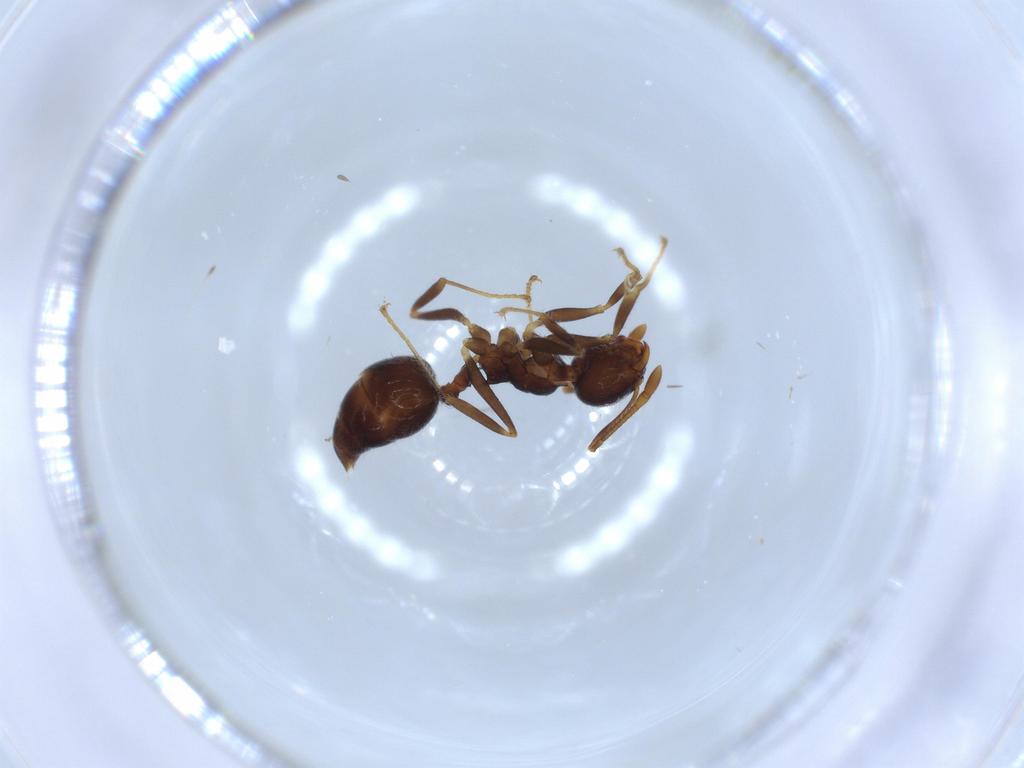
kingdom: Animalia
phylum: Arthropoda
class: Insecta
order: Hymenoptera
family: Formicidae
